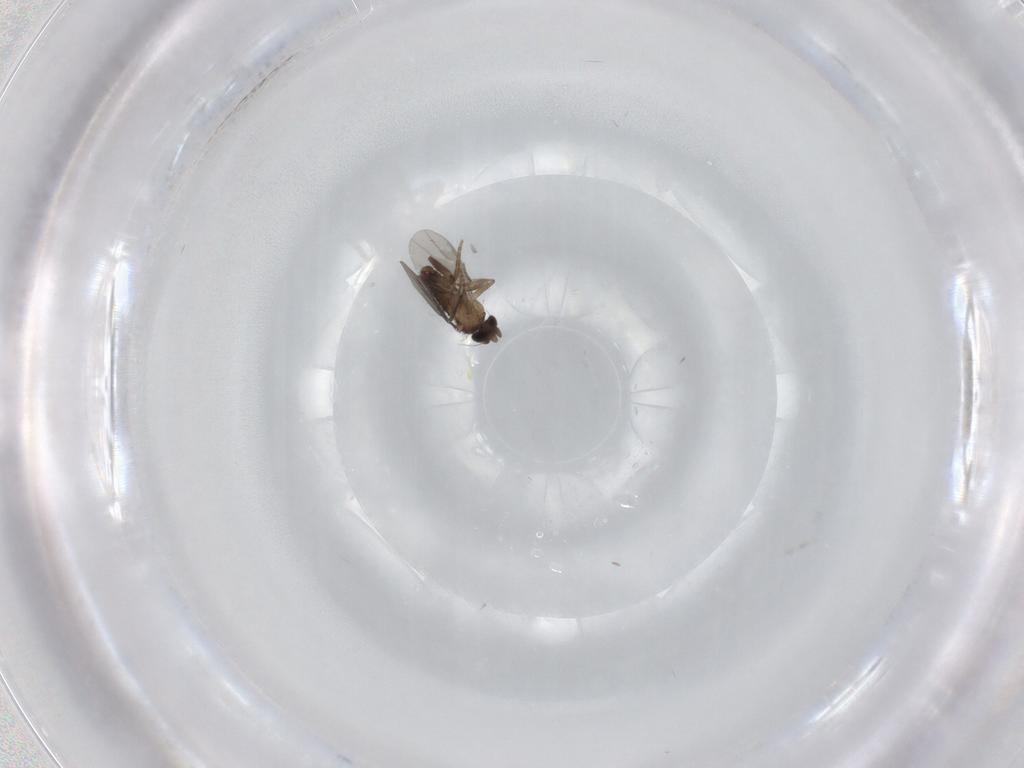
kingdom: Animalia
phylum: Arthropoda
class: Insecta
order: Diptera
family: Cecidomyiidae
